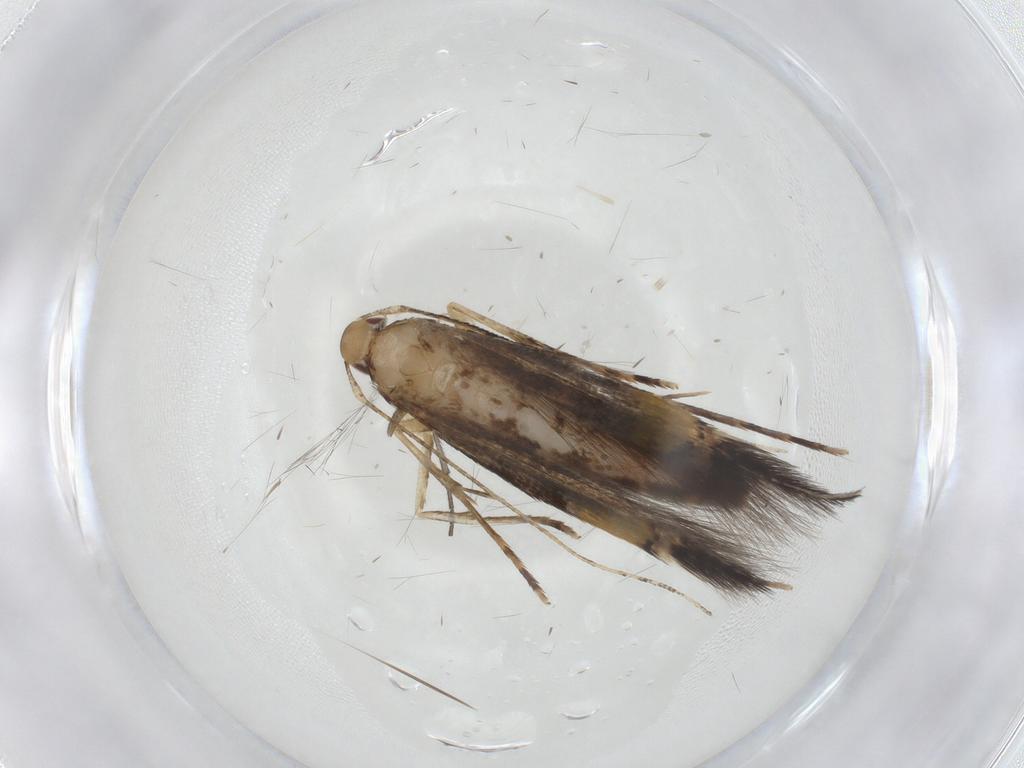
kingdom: Animalia
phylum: Arthropoda
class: Insecta
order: Lepidoptera
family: Cosmopterigidae
